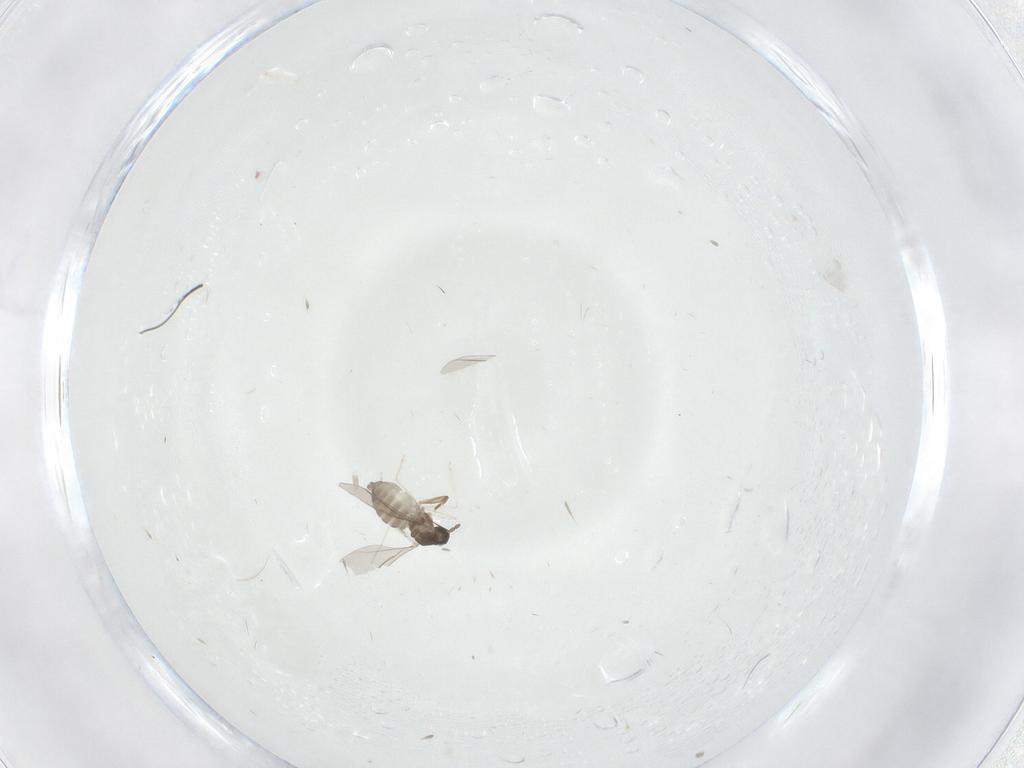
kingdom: Animalia
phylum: Arthropoda
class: Insecta
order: Diptera
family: Cecidomyiidae
